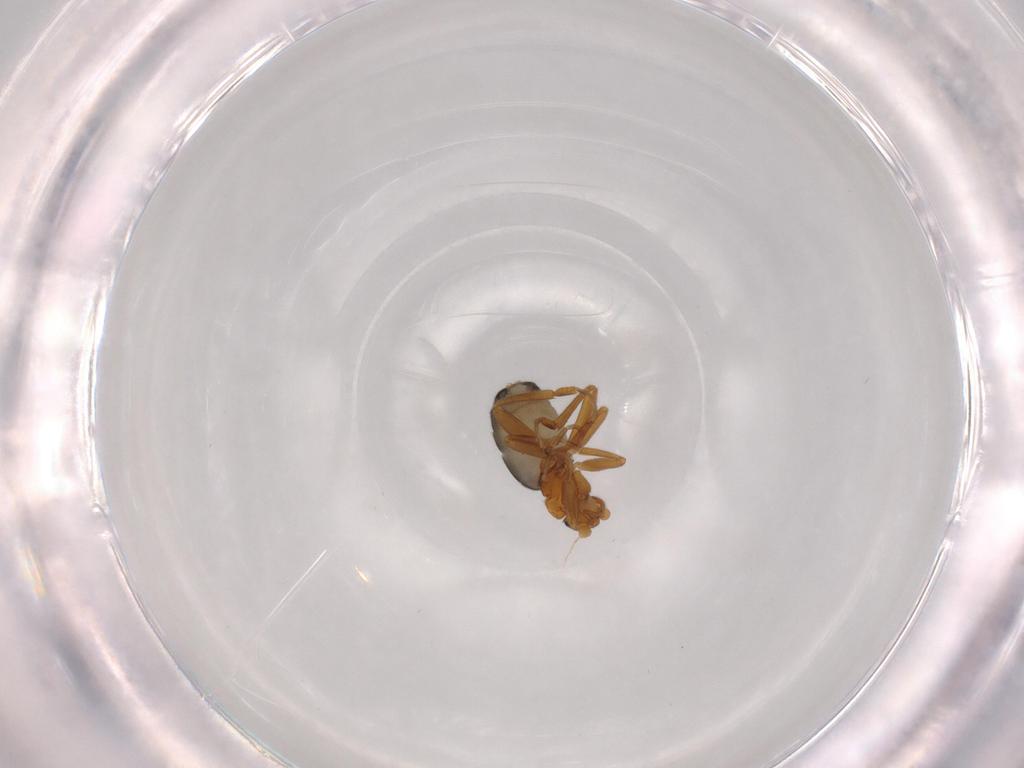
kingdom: Animalia
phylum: Arthropoda
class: Insecta
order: Diptera
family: Phoridae
